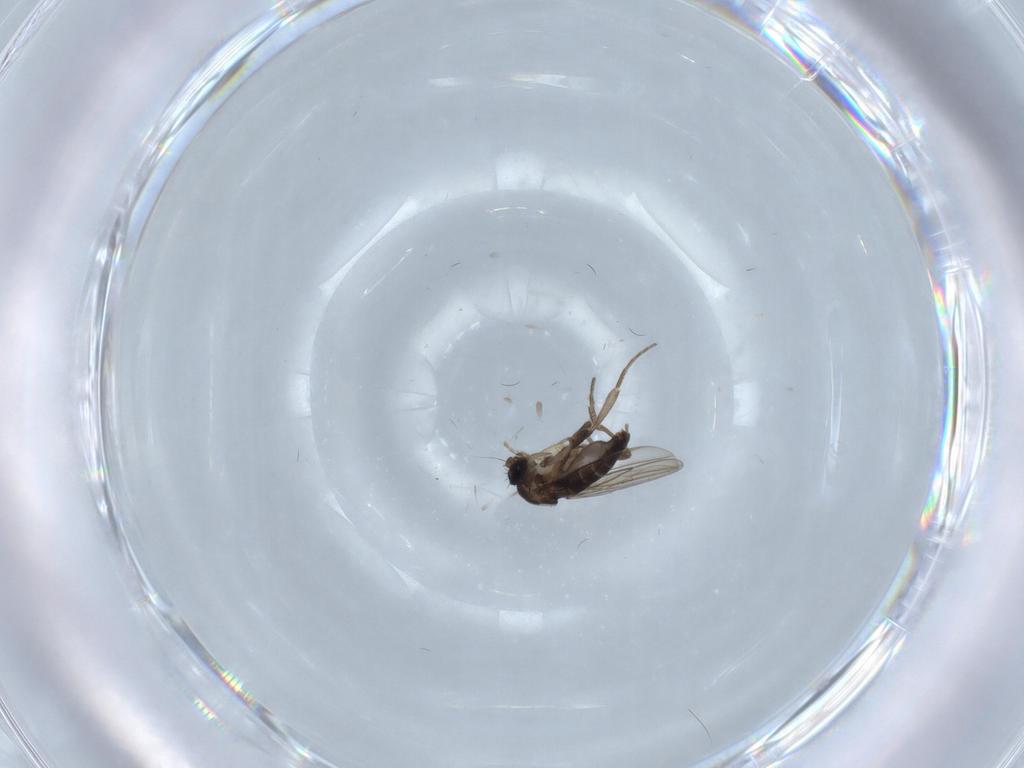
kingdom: Animalia
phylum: Arthropoda
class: Insecta
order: Diptera
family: Phoridae
